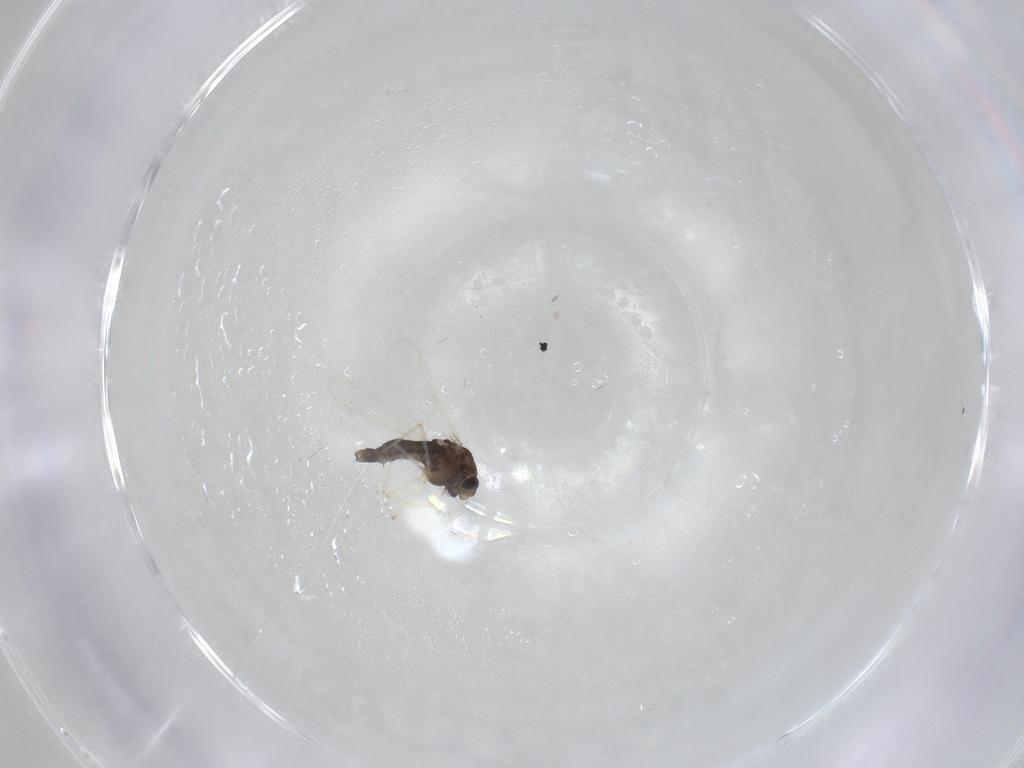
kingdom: Animalia
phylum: Arthropoda
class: Insecta
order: Diptera
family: Chironomidae
